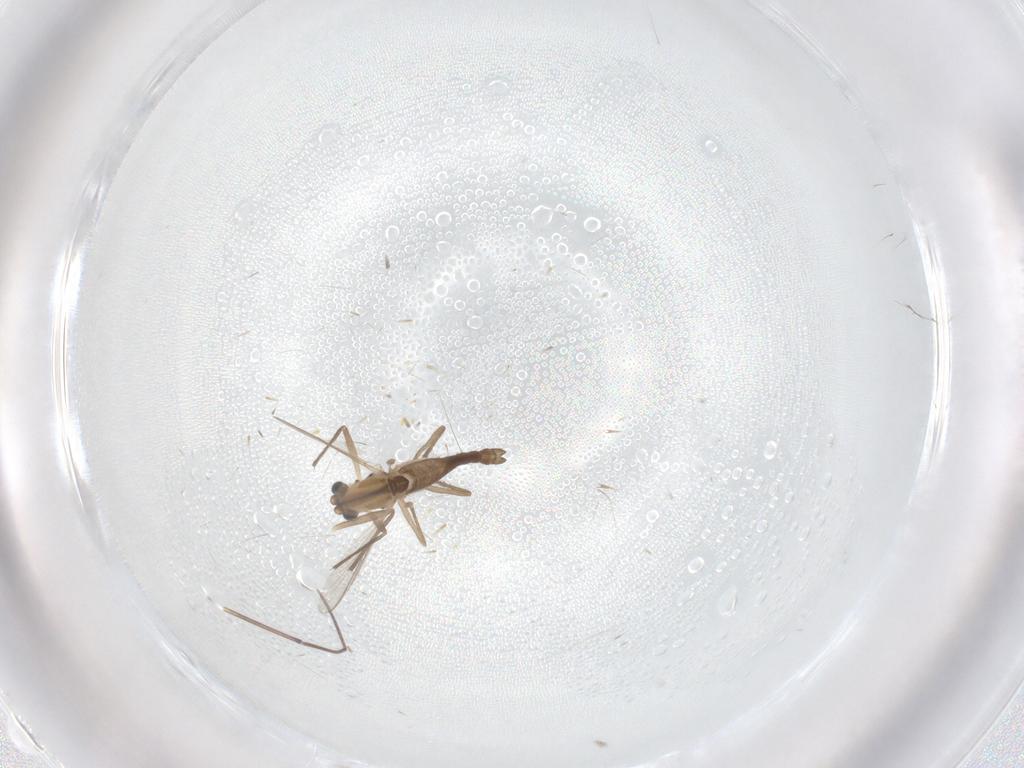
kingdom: Animalia
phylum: Arthropoda
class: Insecta
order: Diptera
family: Chironomidae
